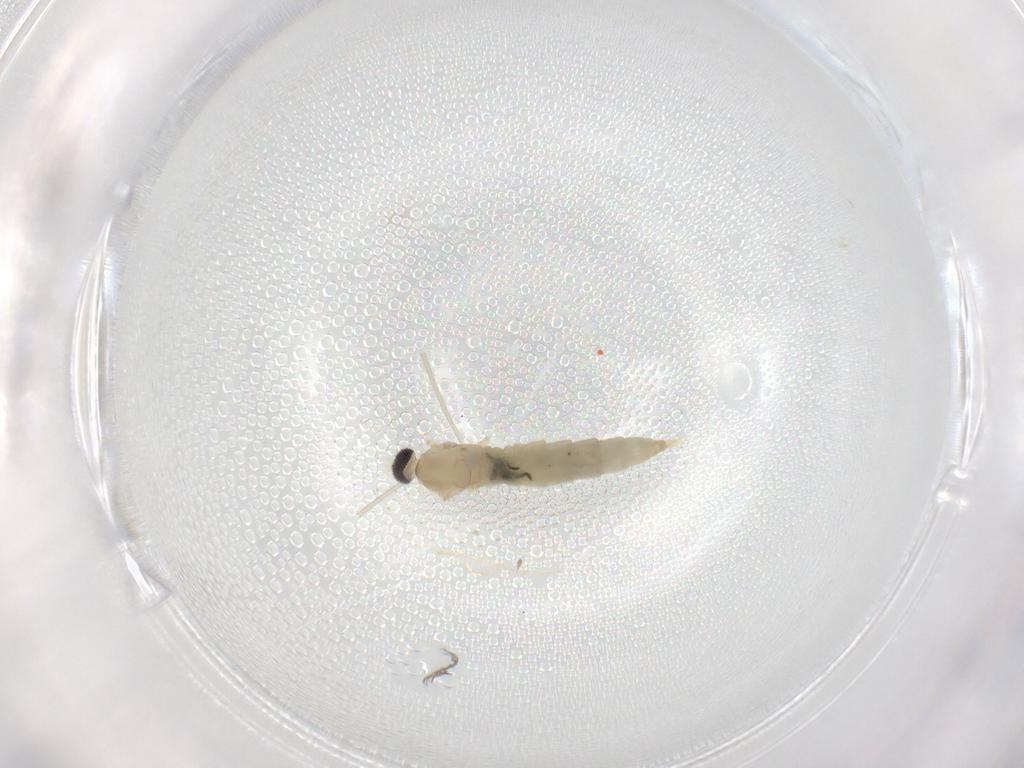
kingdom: Animalia
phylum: Arthropoda
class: Insecta
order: Diptera
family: Cecidomyiidae
